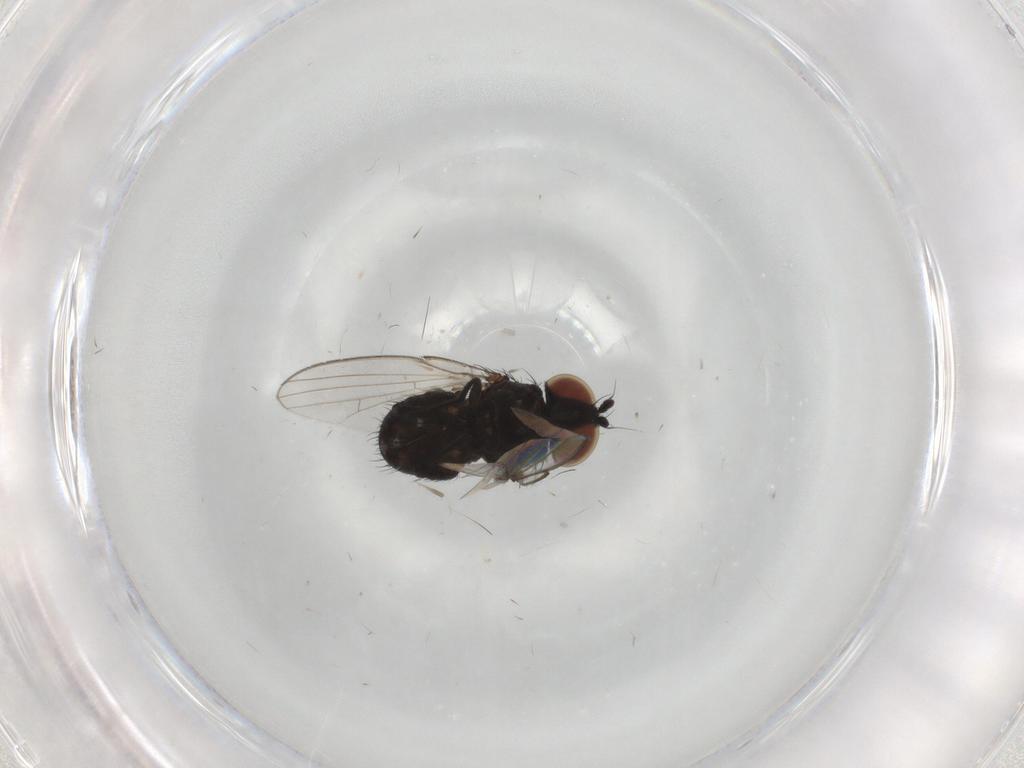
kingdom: Animalia
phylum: Arthropoda
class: Insecta
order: Diptera
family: Milichiidae
